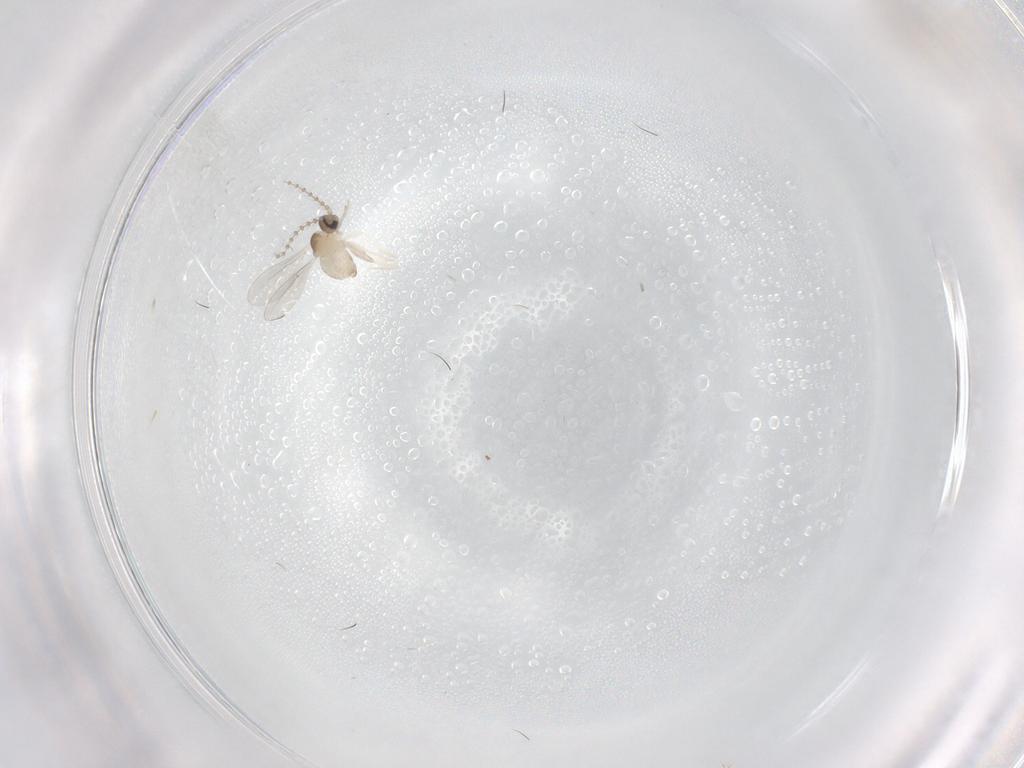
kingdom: Animalia
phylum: Arthropoda
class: Insecta
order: Diptera
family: Cecidomyiidae
